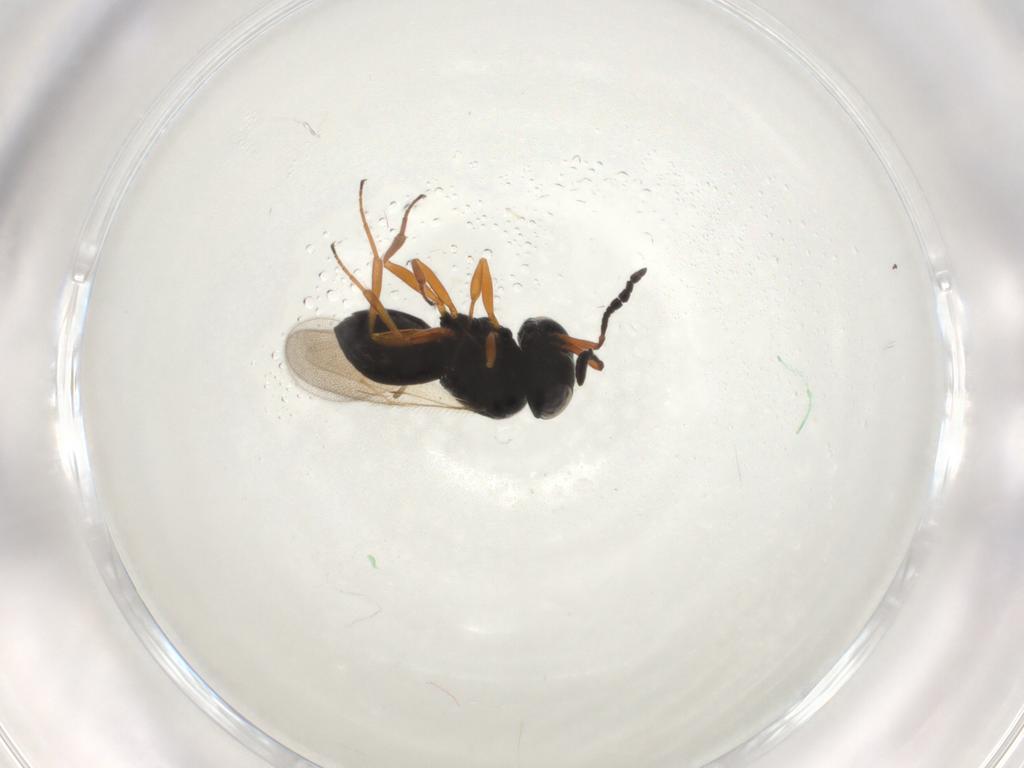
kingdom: Animalia
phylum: Arthropoda
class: Insecta
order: Hymenoptera
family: Scelionidae
